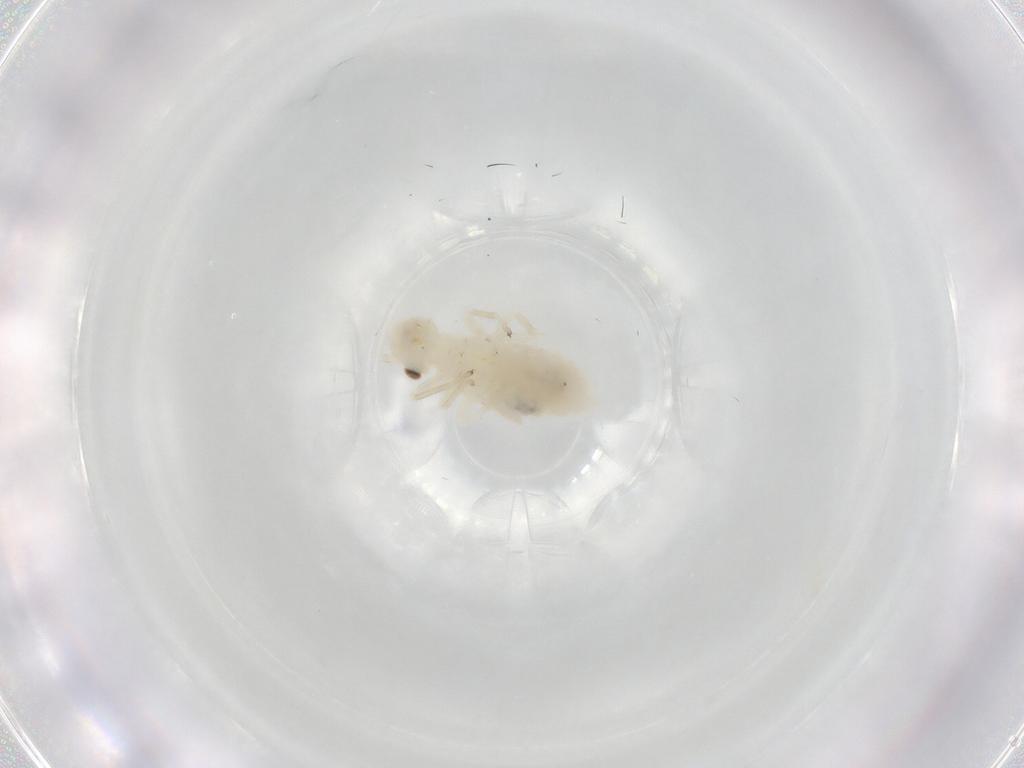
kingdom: Animalia
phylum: Arthropoda
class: Insecta
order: Psocodea
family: Caeciliusidae
